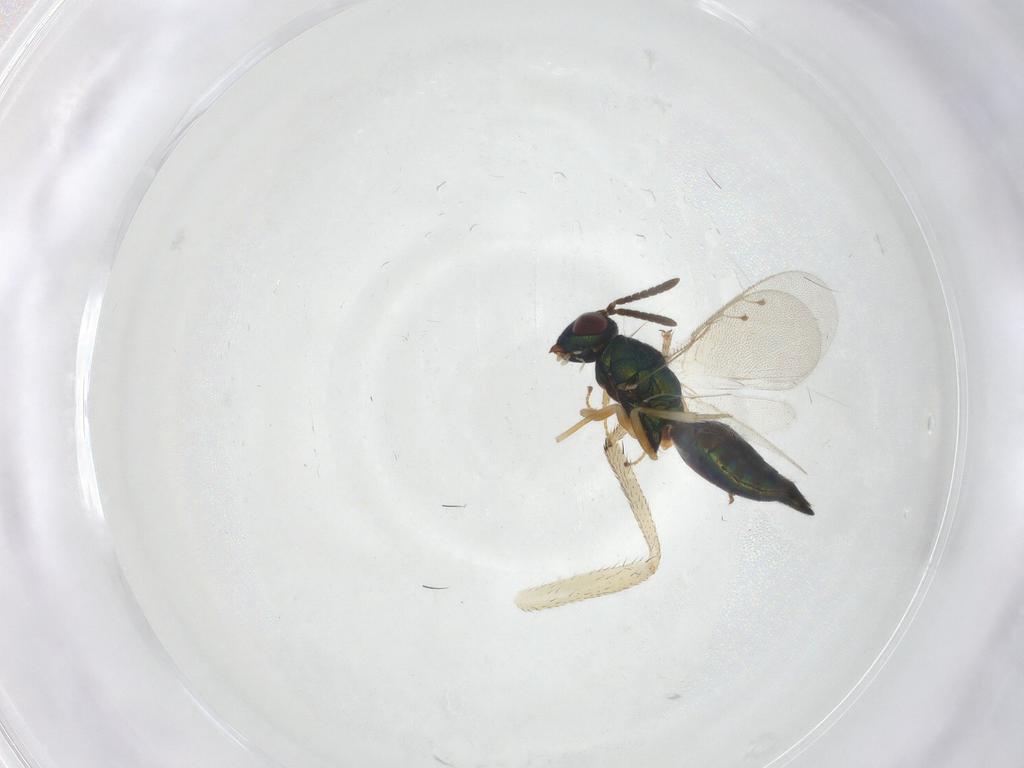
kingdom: Animalia
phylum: Arthropoda
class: Insecta
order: Hymenoptera
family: Pteromalidae
